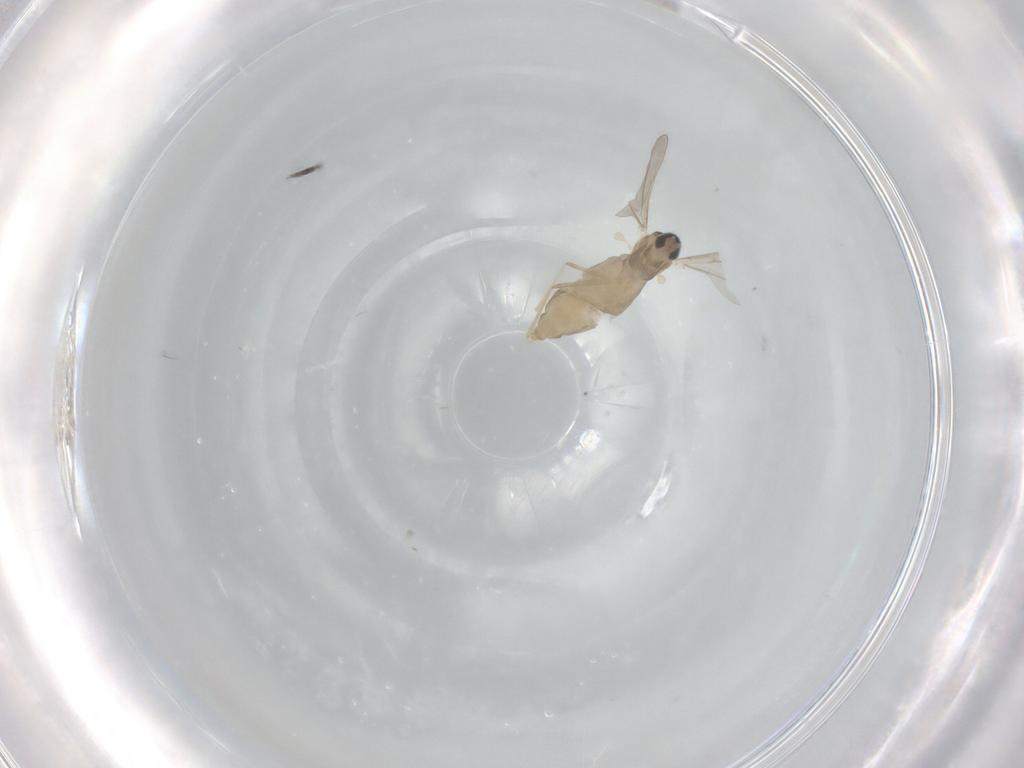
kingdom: Animalia
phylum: Arthropoda
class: Insecta
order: Diptera
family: Cecidomyiidae
